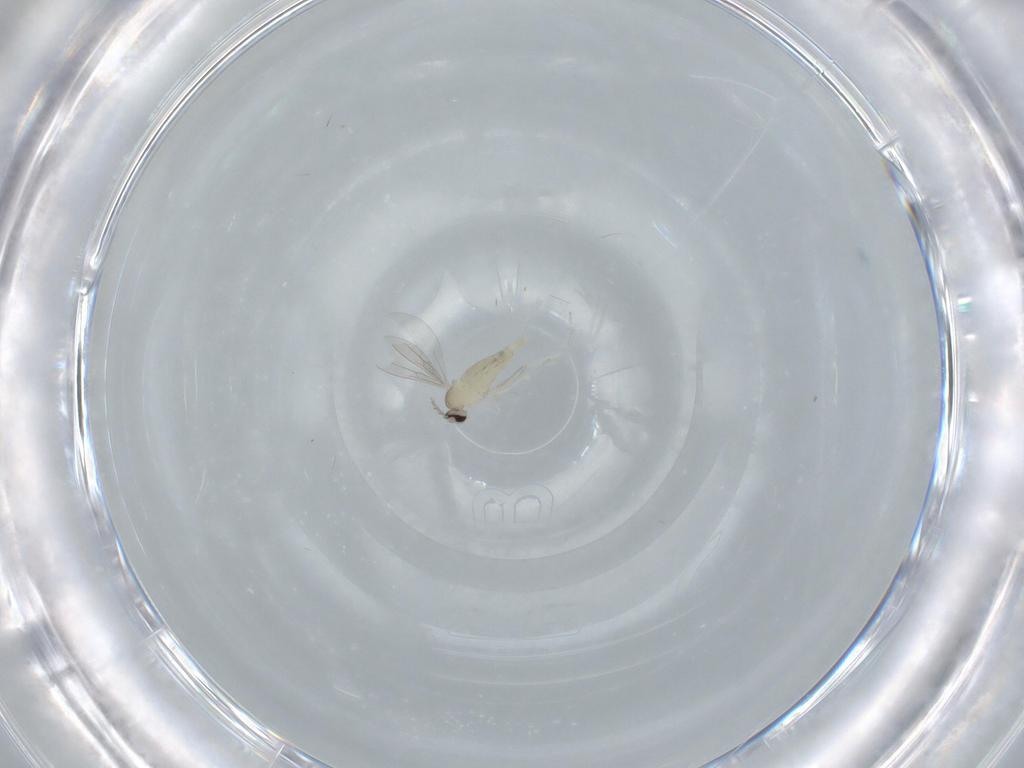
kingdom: Animalia
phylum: Arthropoda
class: Insecta
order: Diptera
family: Cecidomyiidae
